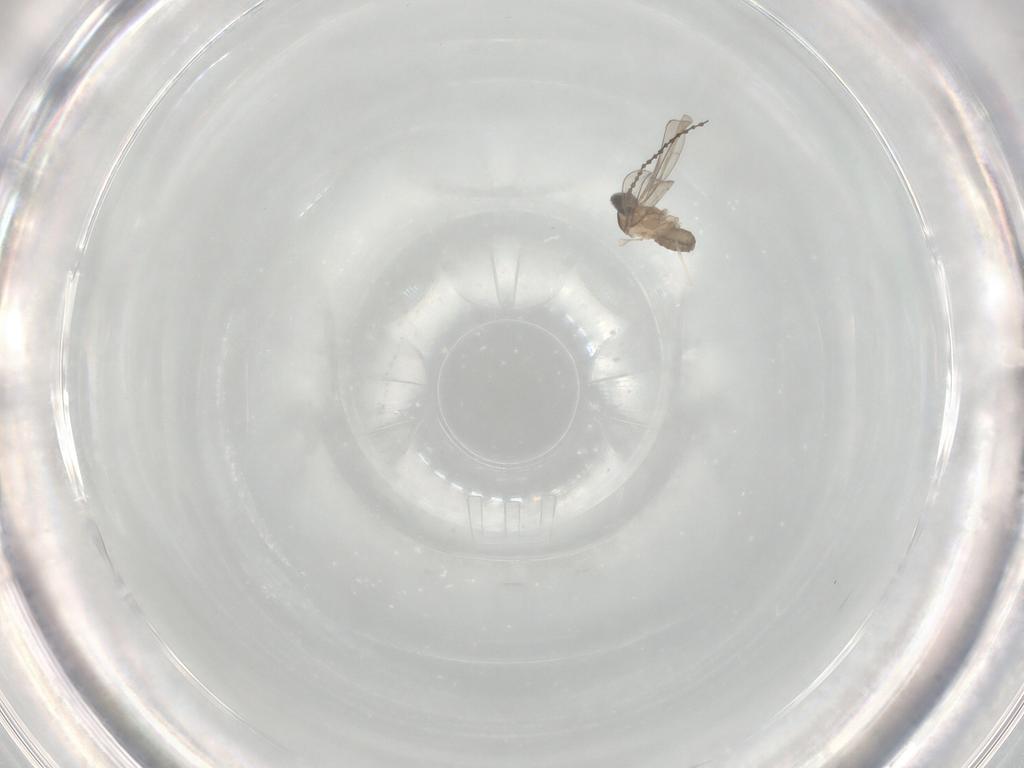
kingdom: Animalia
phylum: Arthropoda
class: Insecta
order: Diptera
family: Cecidomyiidae
